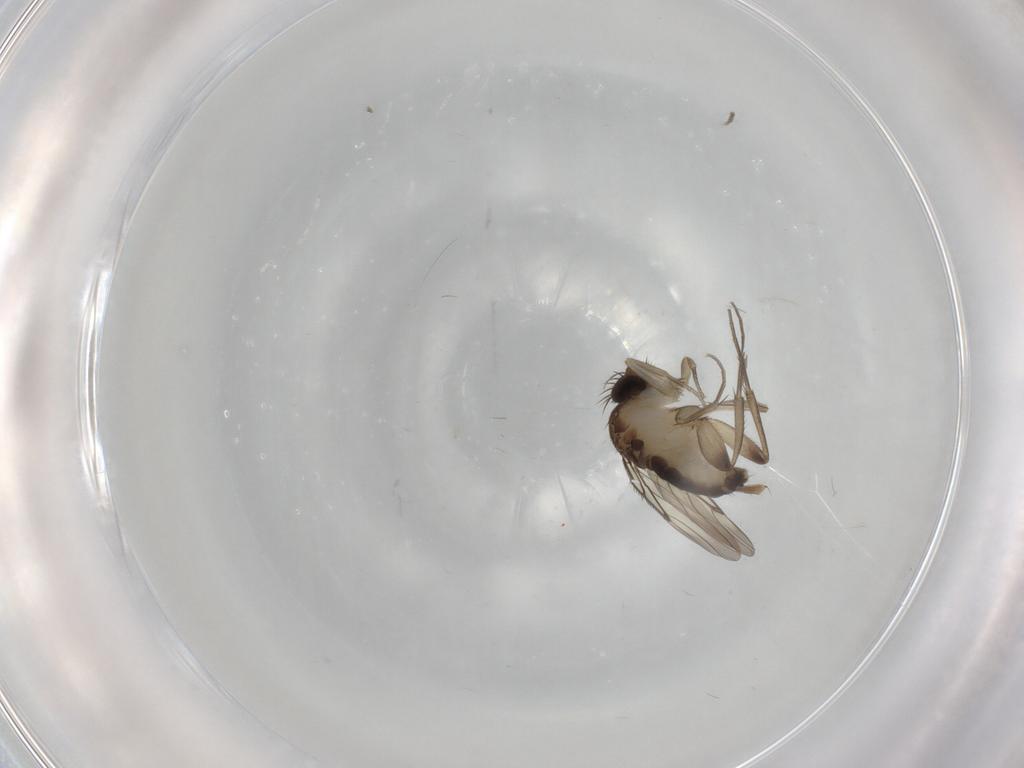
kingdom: Animalia
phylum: Arthropoda
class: Insecta
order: Diptera
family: Phoridae
